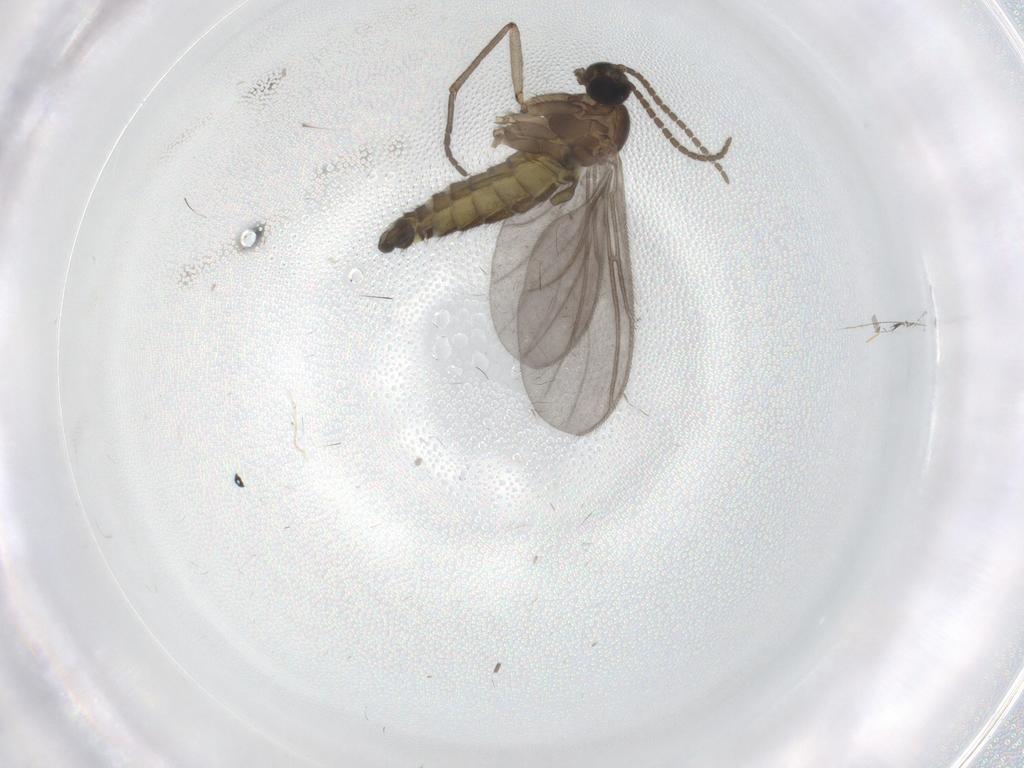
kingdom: Animalia
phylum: Arthropoda
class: Insecta
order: Diptera
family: Sciaridae
